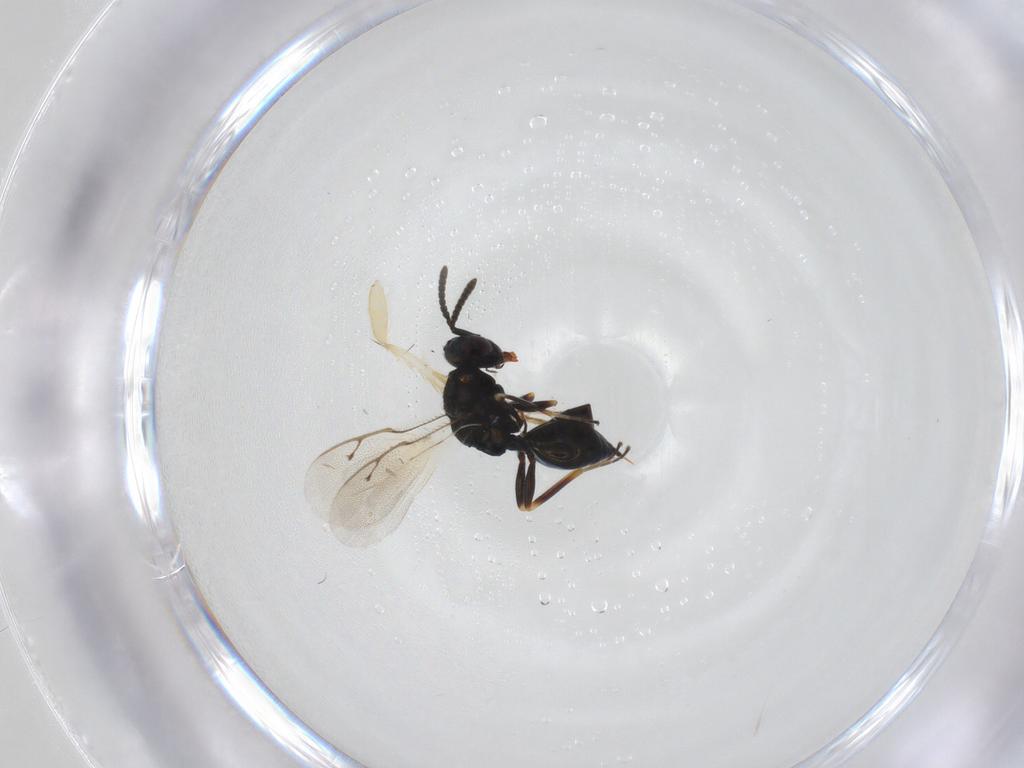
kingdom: Animalia
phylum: Arthropoda
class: Insecta
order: Hymenoptera
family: Pteromalidae
